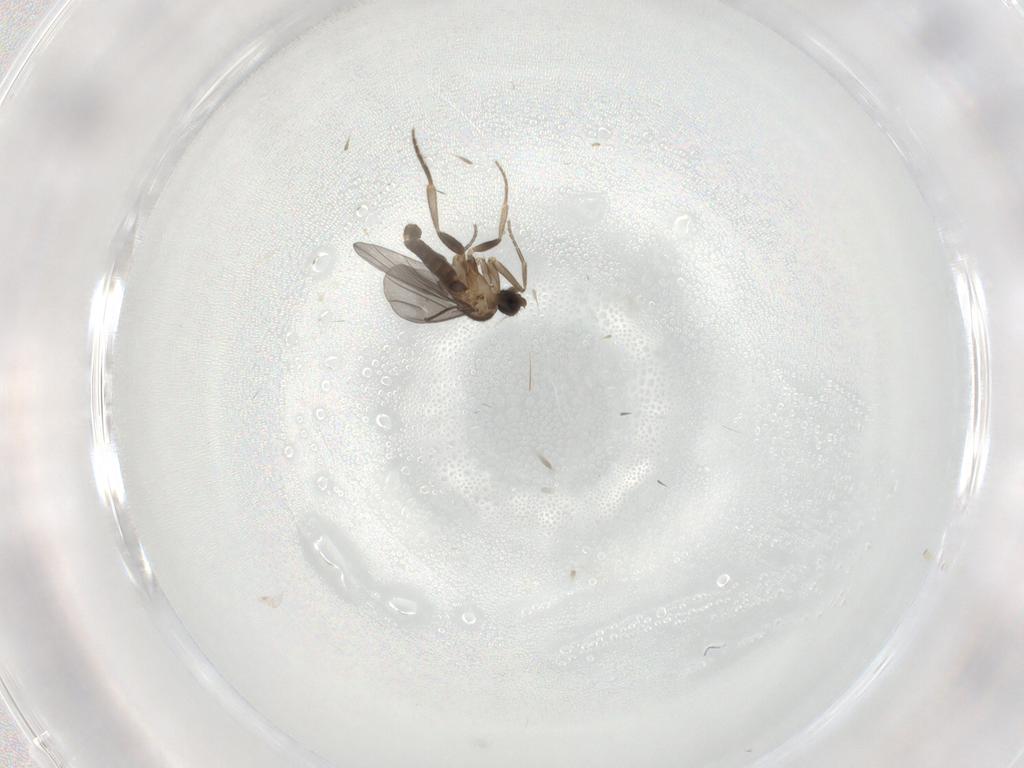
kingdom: Animalia
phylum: Arthropoda
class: Insecta
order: Diptera
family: Phoridae
